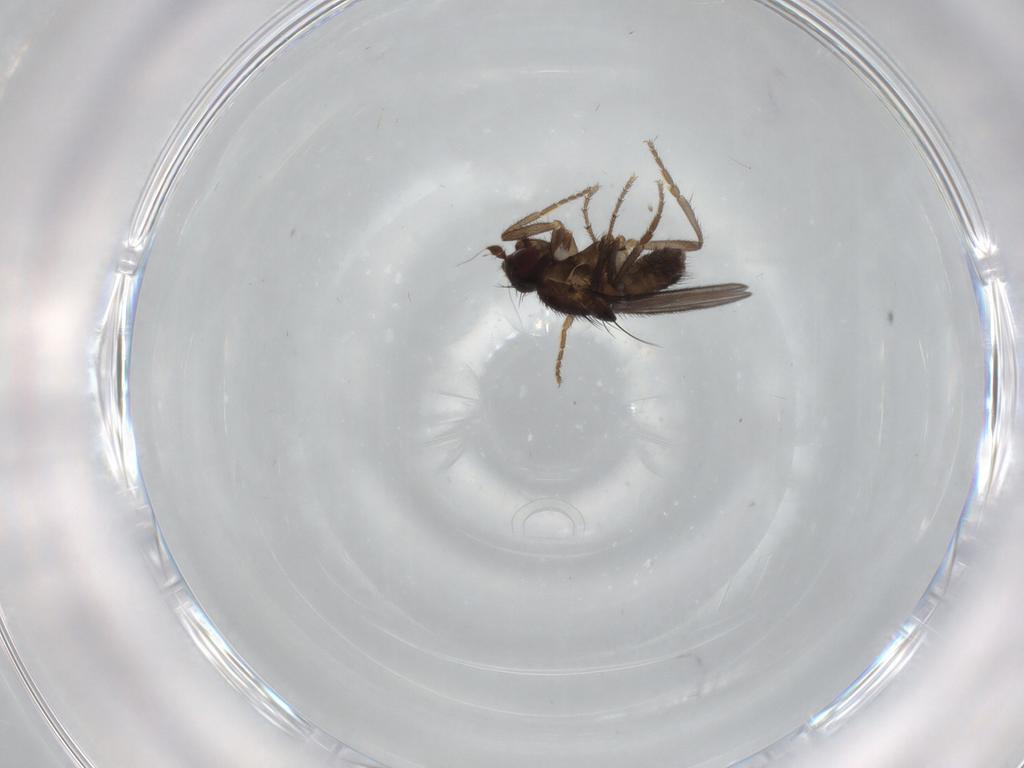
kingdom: Animalia
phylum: Arthropoda
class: Insecta
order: Diptera
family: Sphaeroceridae
